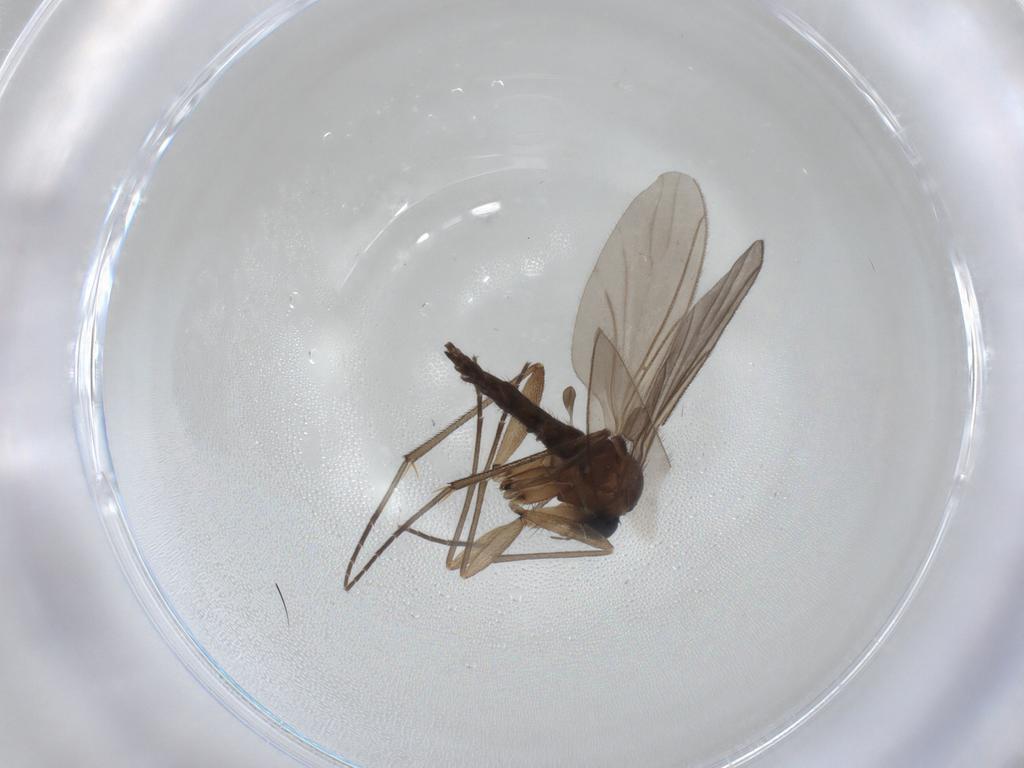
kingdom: Animalia
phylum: Arthropoda
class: Insecta
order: Diptera
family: Sciaridae
